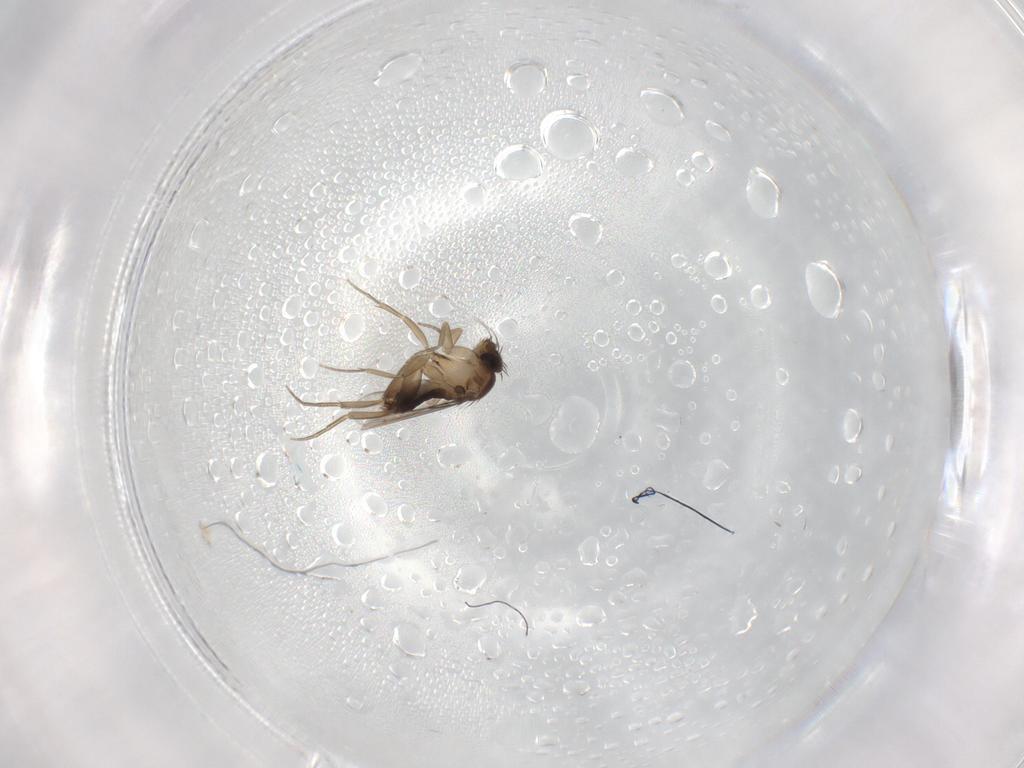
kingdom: Animalia
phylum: Arthropoda
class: Insecta
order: Diptera
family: Phoridae
